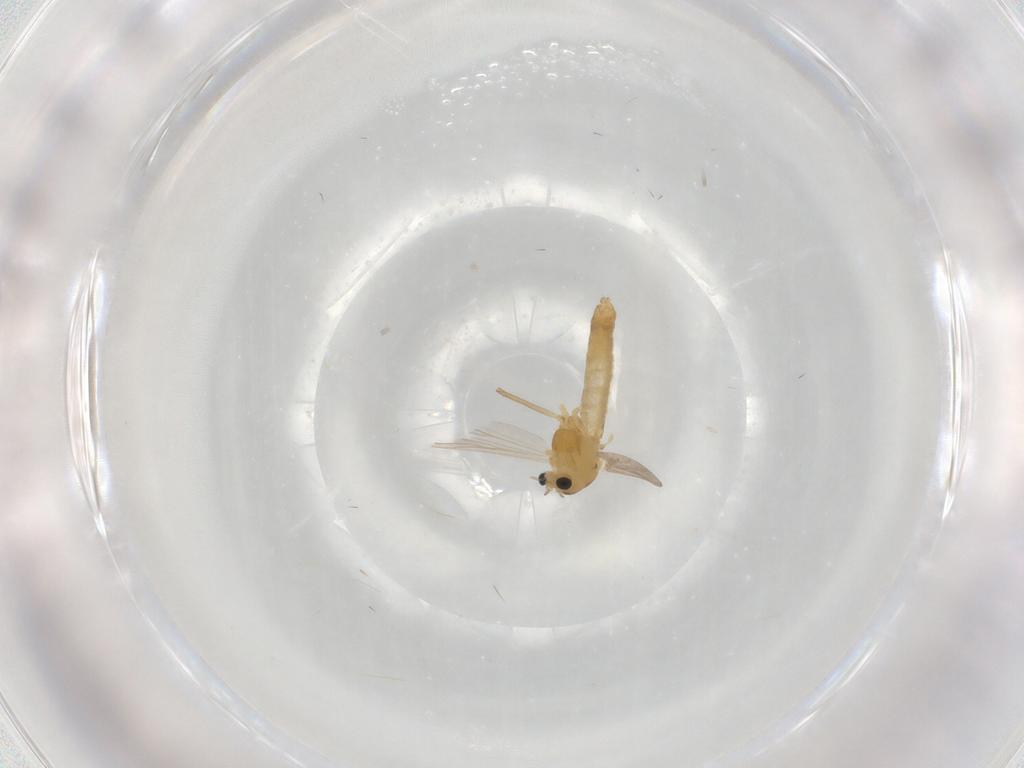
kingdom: Animalia
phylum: Arthropoda
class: Insecta
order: Diptera
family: Chironomidae
